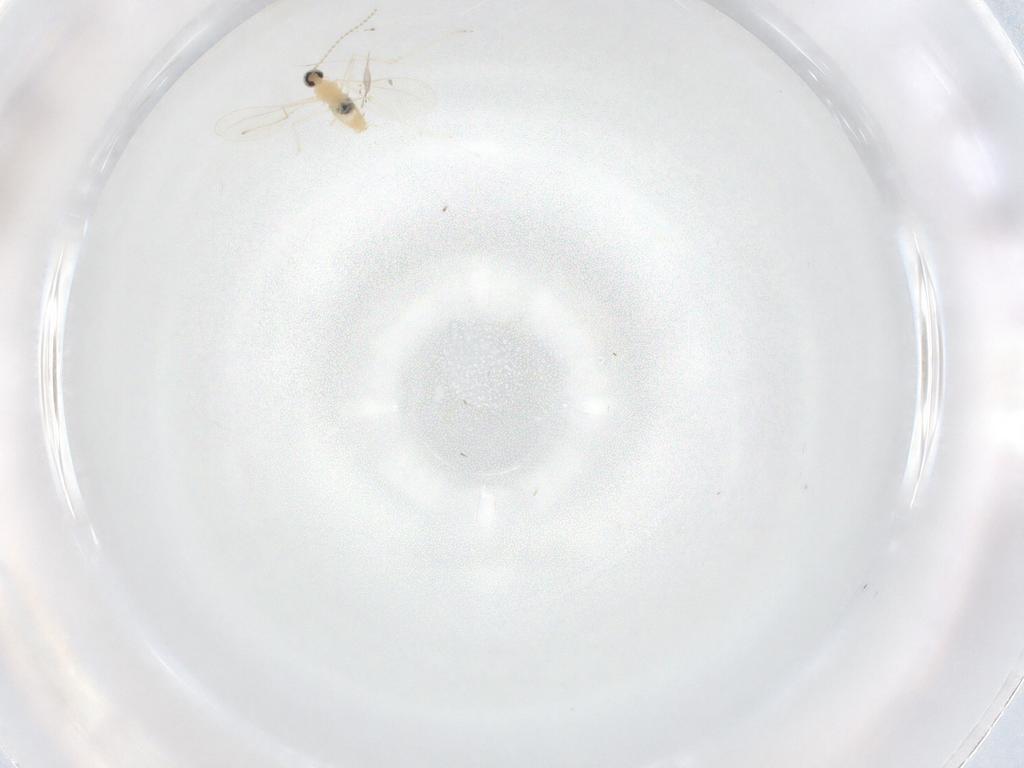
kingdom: Animalia
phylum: Arthropoda
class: Insecta
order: Diptera
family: Cecidomyiidae
